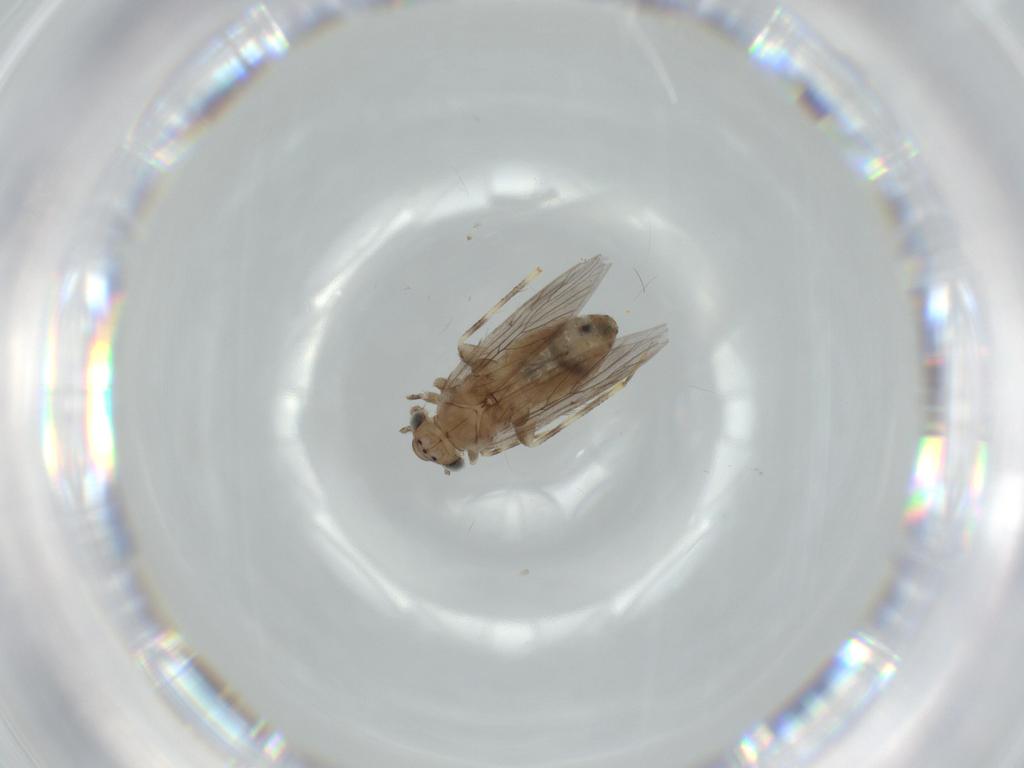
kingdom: Animalia
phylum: Arthropoda
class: Insecta
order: Psocodea
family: Lepidopsocidae
